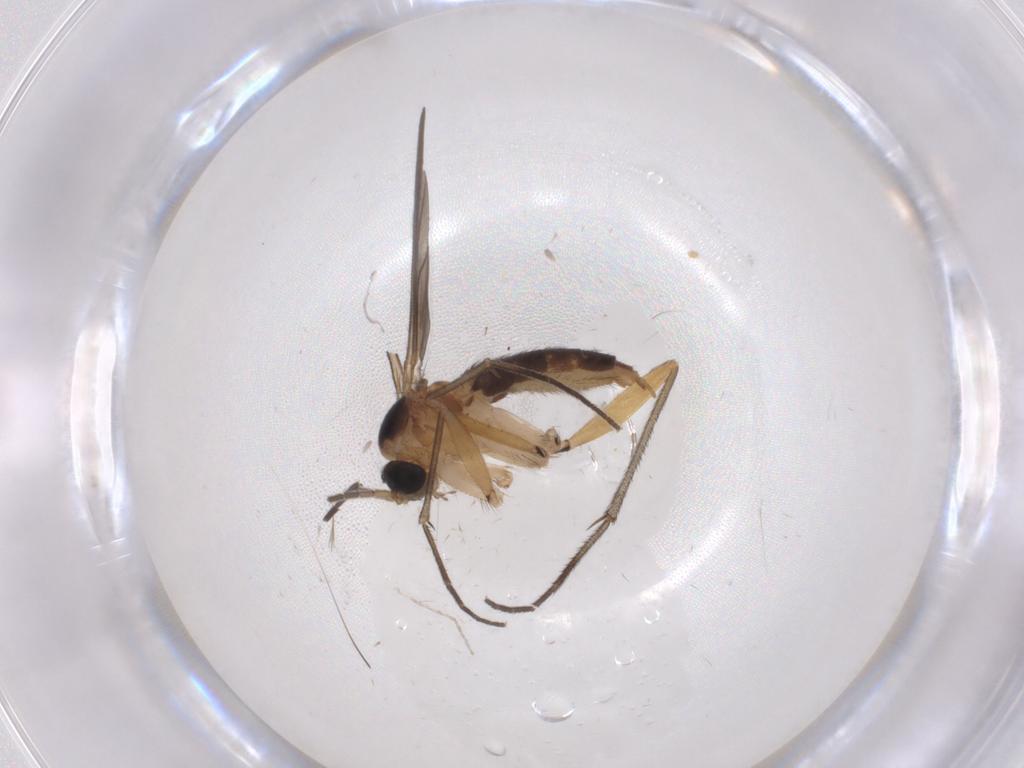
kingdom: Animalia
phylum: Arthropoda
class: Insecta
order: Diptera
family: Sciaridae
